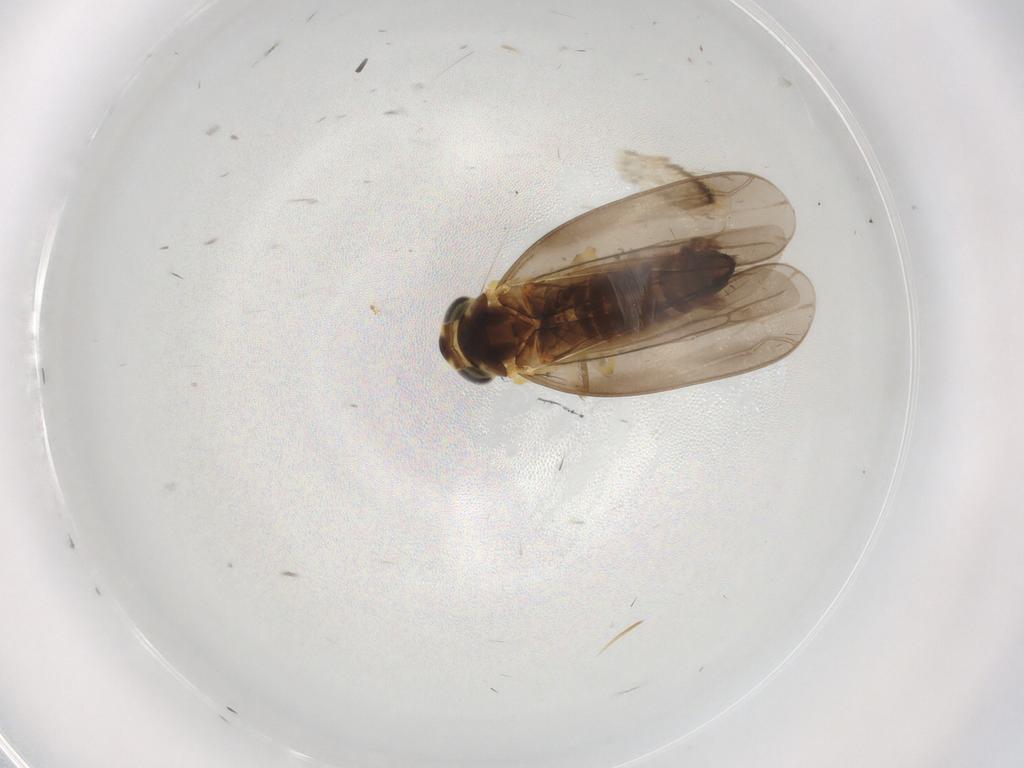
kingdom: Animalia
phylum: Arthropoda
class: Insecta
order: Hemiptera
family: Cicadellidae
